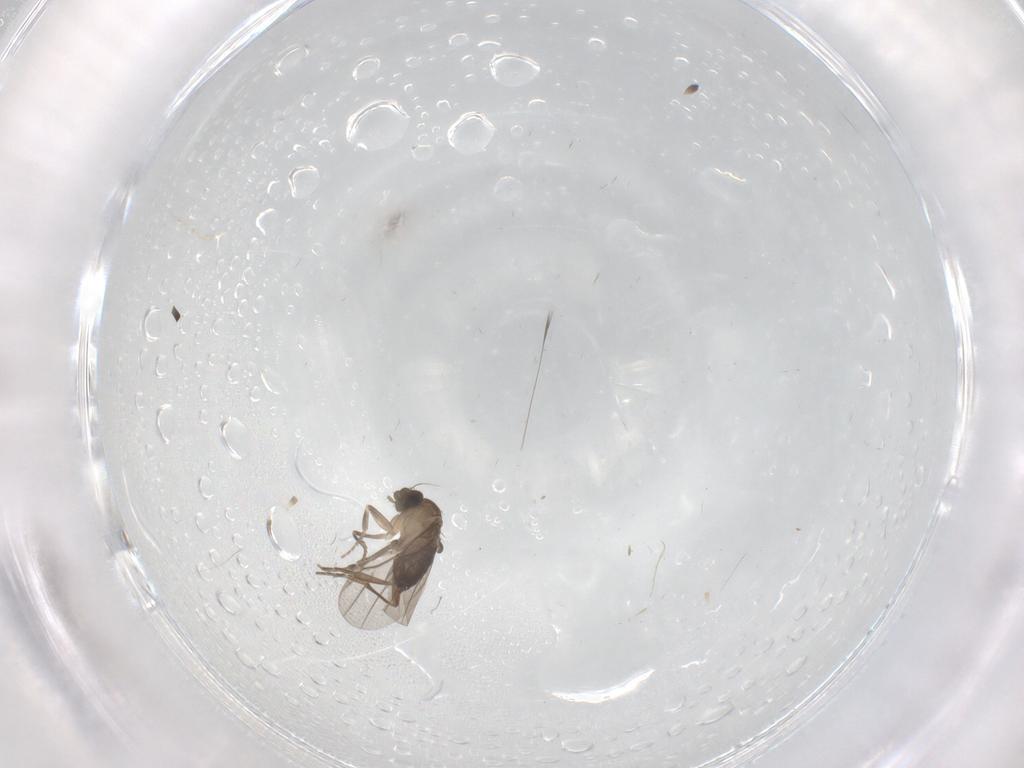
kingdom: Animalia
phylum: Arthropoda
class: Insecta
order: Diptera
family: Phoridae
